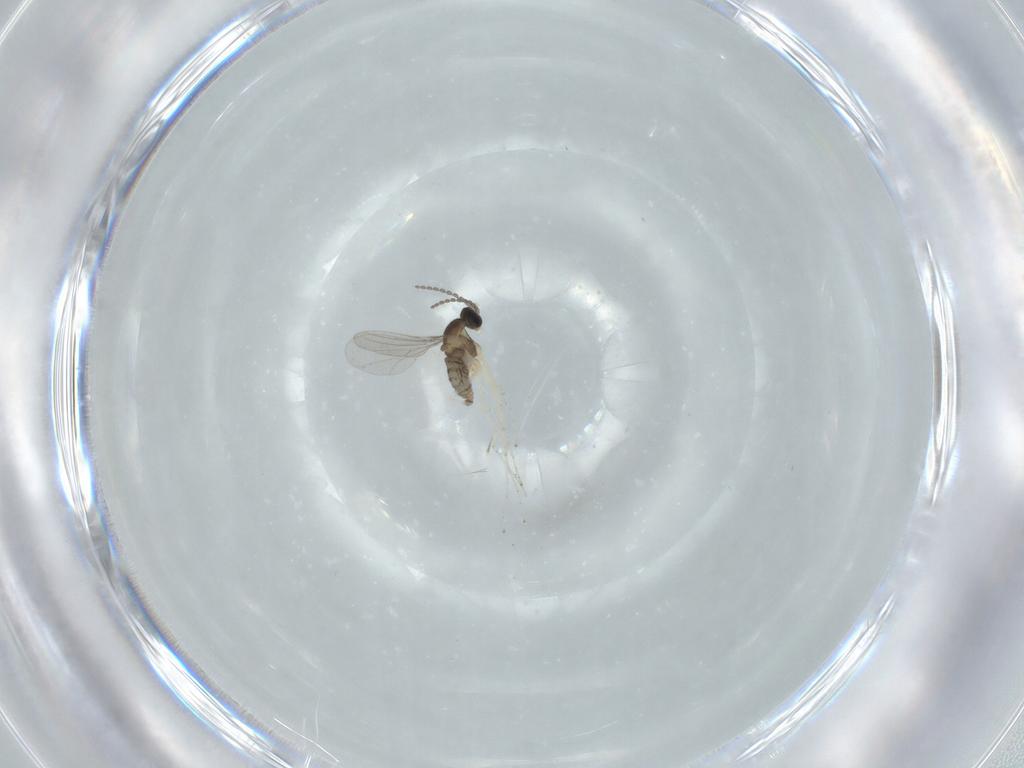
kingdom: Animalia
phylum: Arthropoda
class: Insecta
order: Diptera
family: Cecidomyiidae
